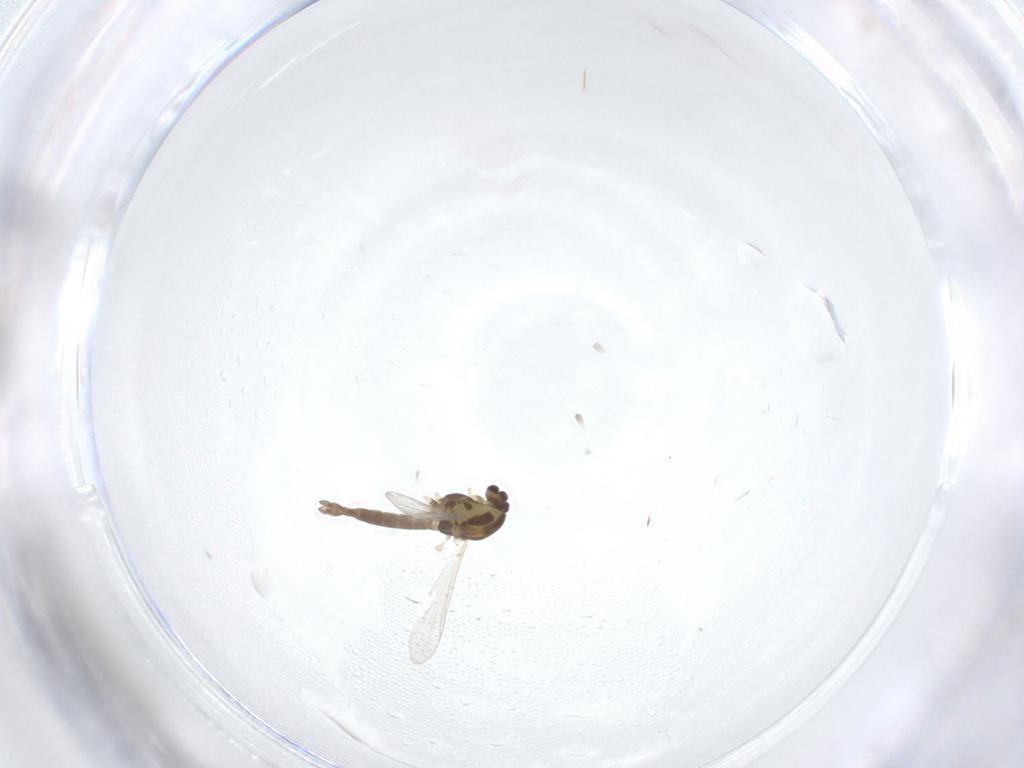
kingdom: Animalia
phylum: Arthropoda
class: Insecta
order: Diptera
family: Chironomidae
